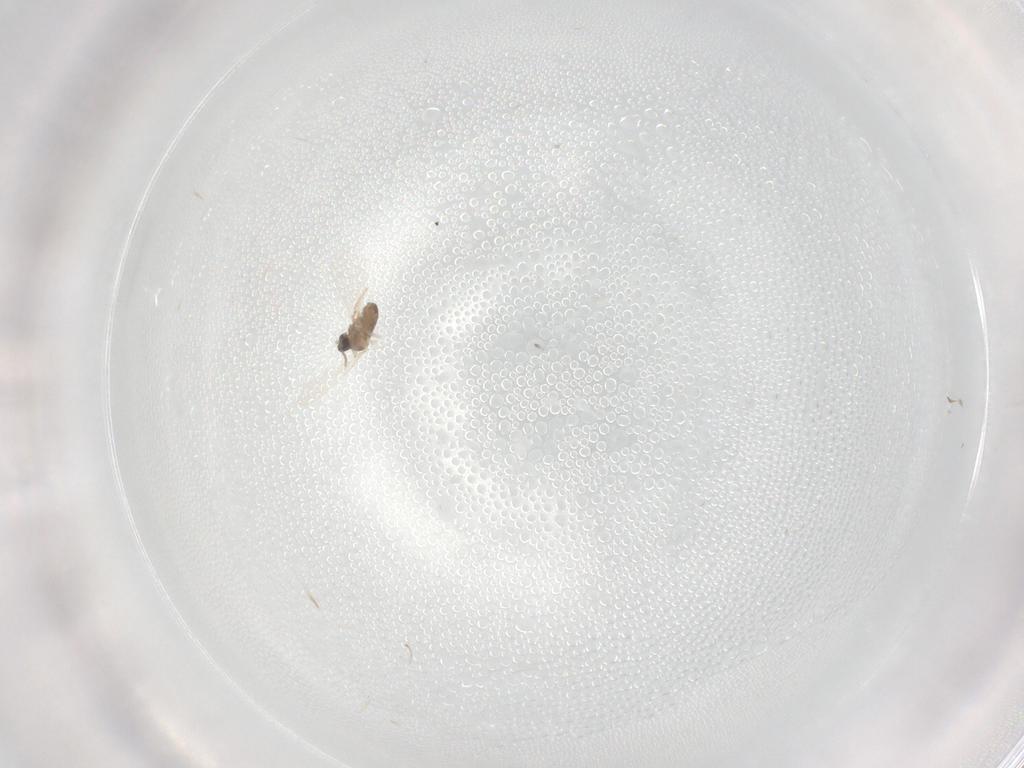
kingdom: Animalia
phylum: Arthropoda
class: Insecta
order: Diptera
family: Cecidomyiidae
